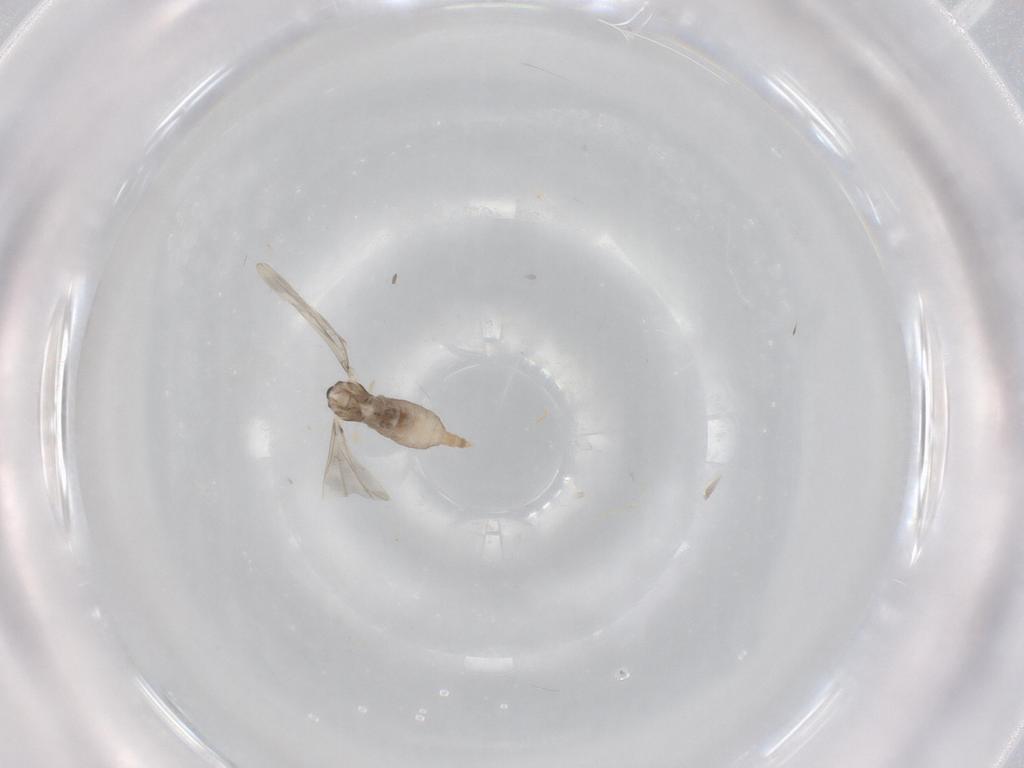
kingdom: Animalia
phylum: Arthropoda
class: Insecta
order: Diptera
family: Cecidomyiidae
